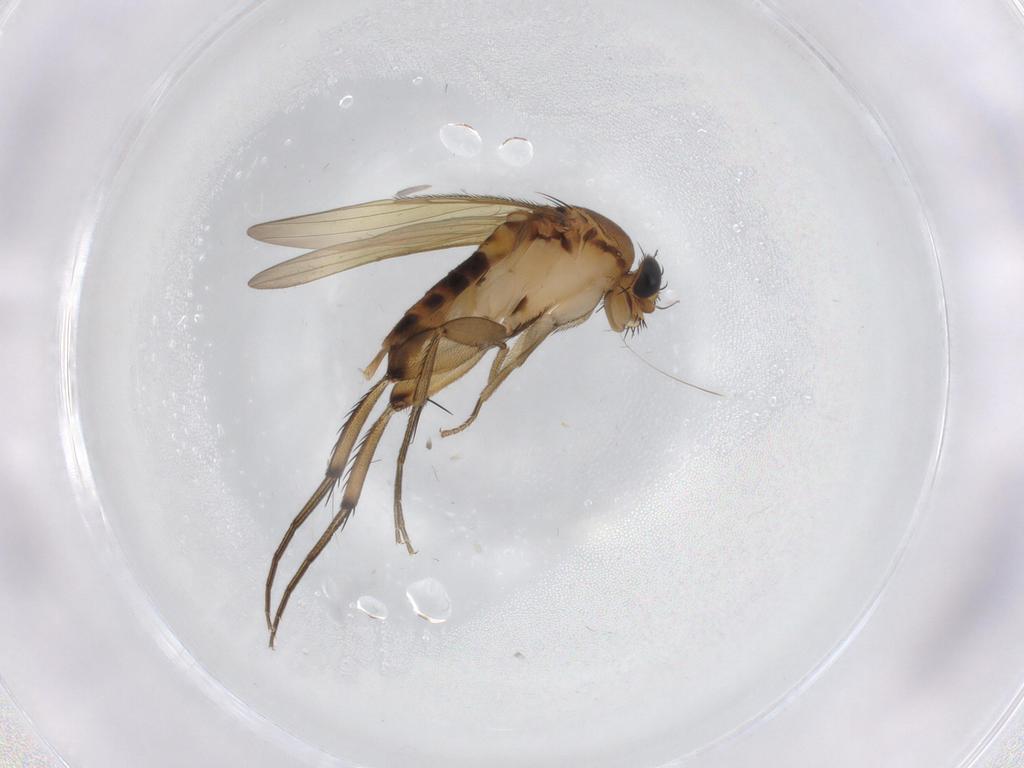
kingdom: Animalia
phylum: Arthropoda
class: Insecta
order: Diptera
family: Phoridae
